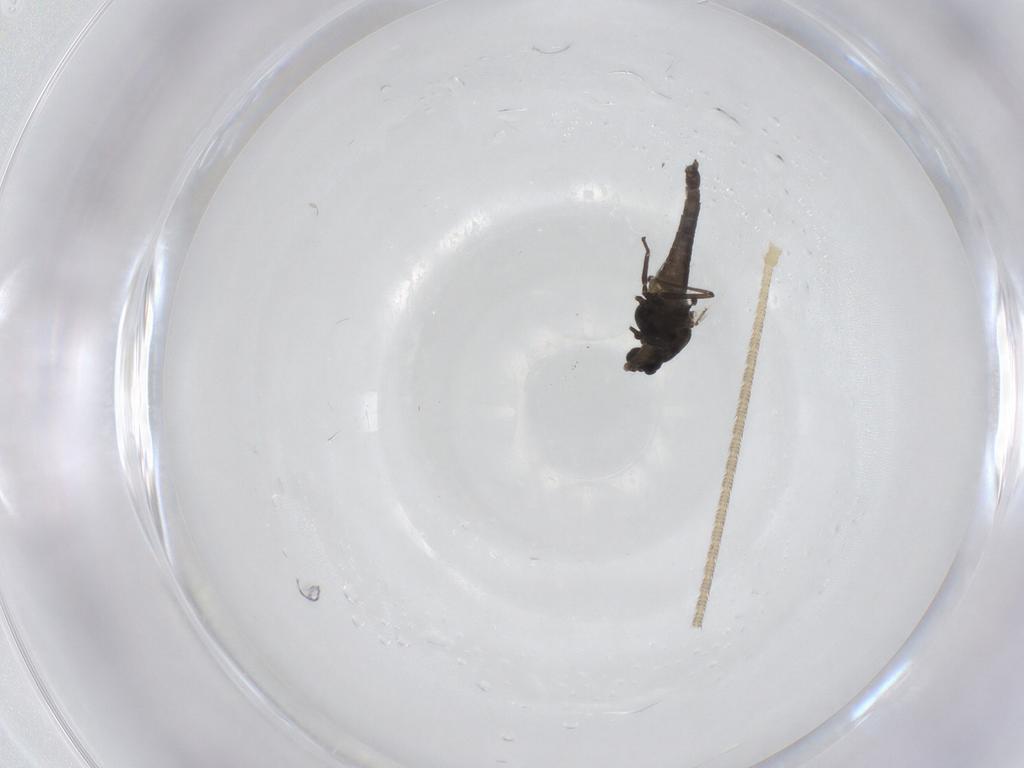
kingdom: Animalia
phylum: Arthropoda
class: Insecta
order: Diptera
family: Chironomidae
